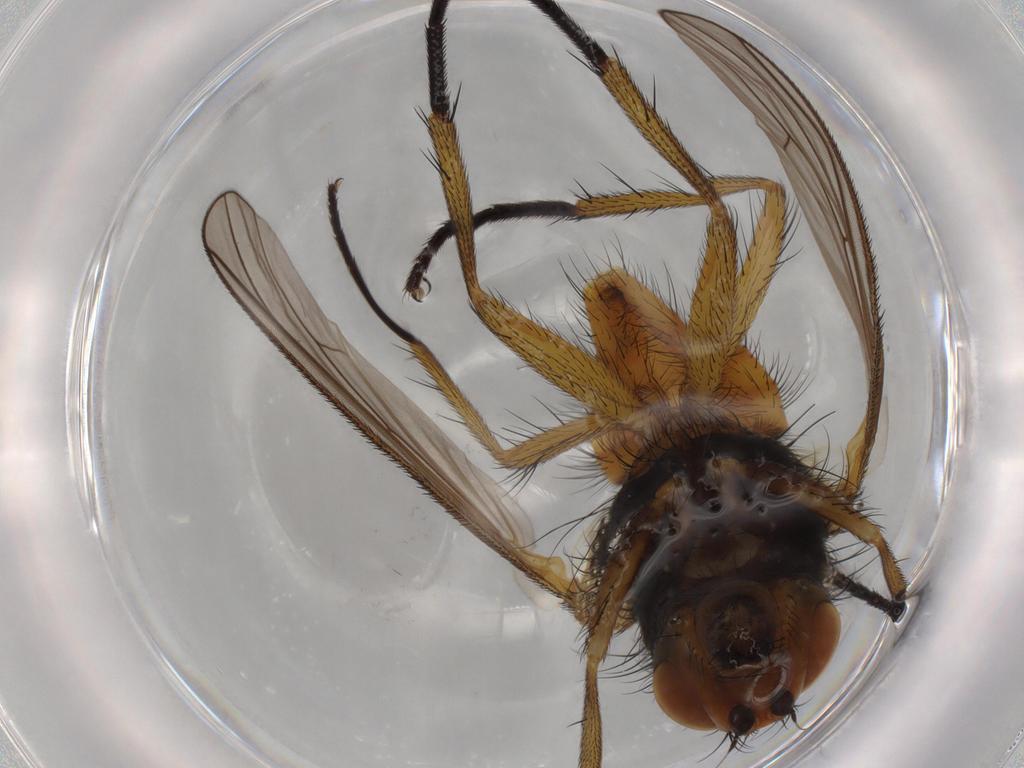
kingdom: Animalia
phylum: Arthropoda
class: Insecta
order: Diptera
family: Anthomyiidae
